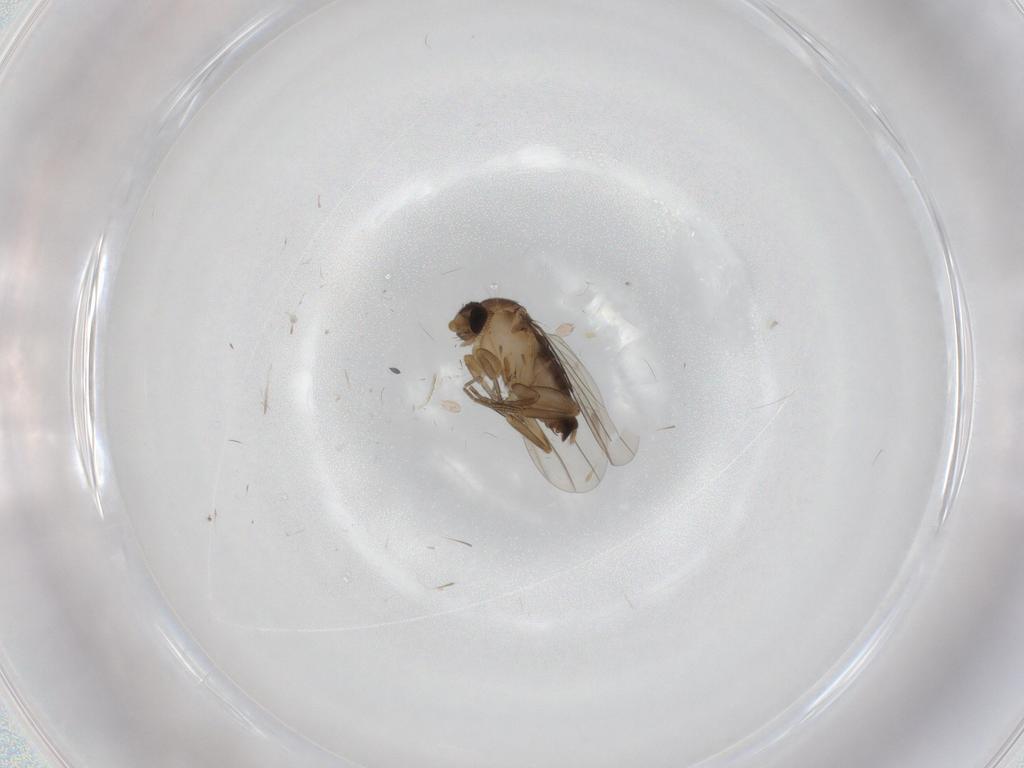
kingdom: Animalia
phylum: Arthropoda
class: Insecta
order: Diptera
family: Phoridae
